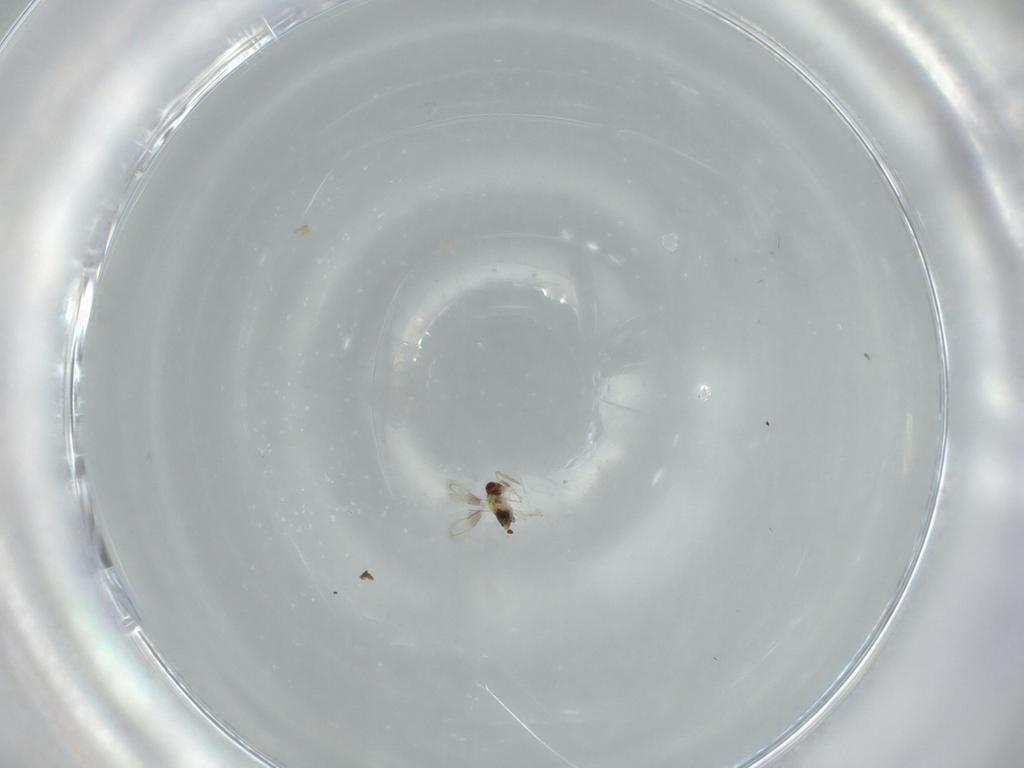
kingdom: Animalia
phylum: Arthropoda
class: Insecta
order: Hymenoptera
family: Aphelinidae
